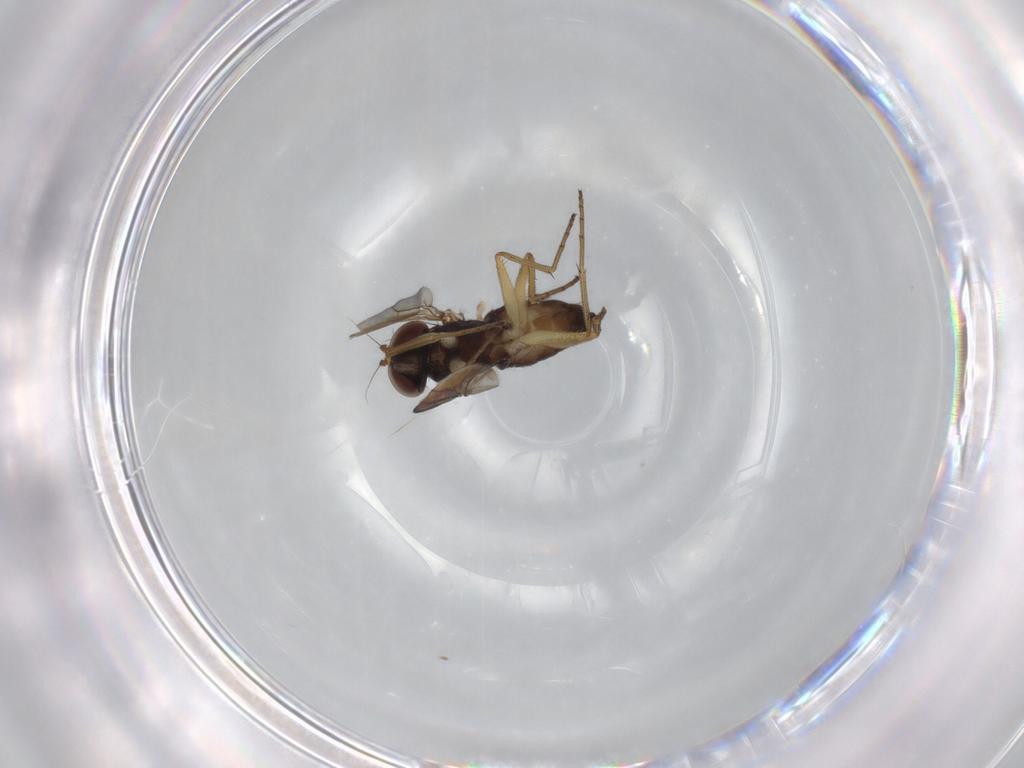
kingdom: Animalia
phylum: Arthropoda
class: Insecta
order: Diptera
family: Dolichopodidae
